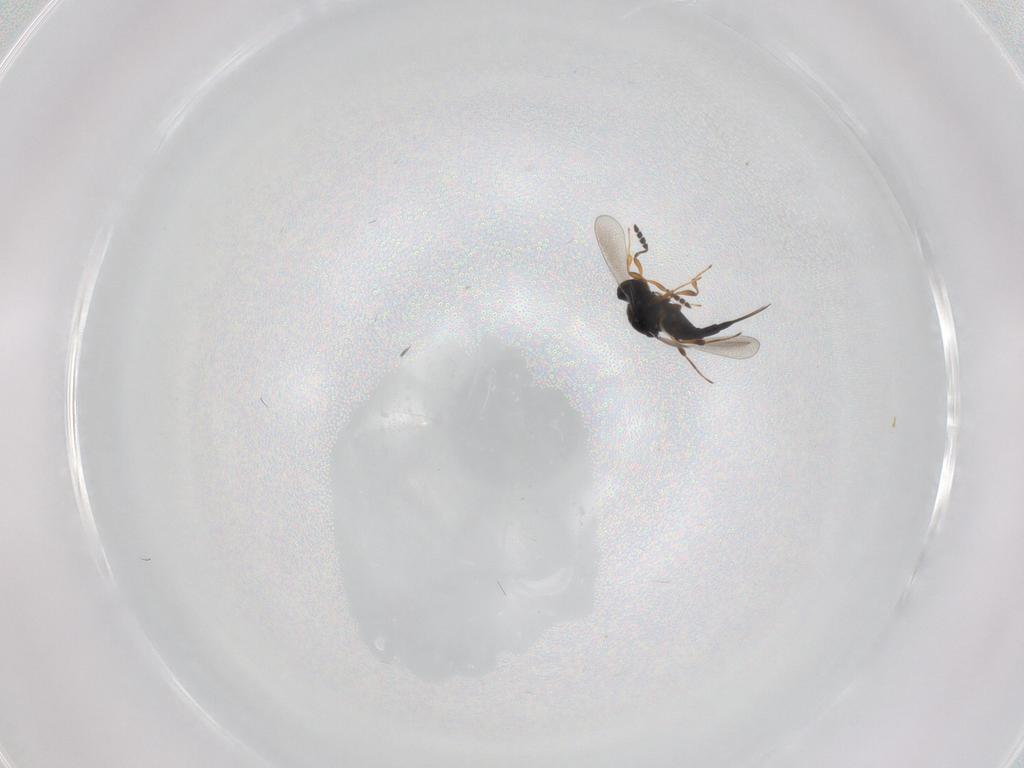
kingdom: Animalia
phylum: Arthropoda
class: Insecta
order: Hymenoptera
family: Platygastridae
